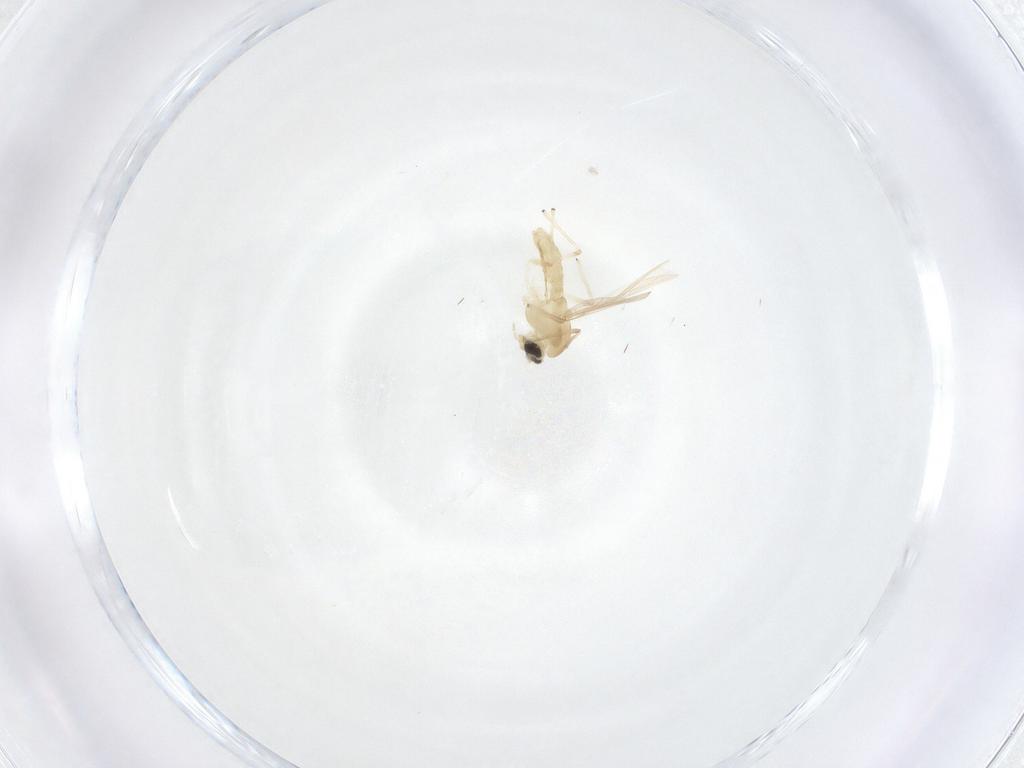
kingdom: Animalia
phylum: Arthropoda
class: Insecta
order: Diptera
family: Chironomidae
